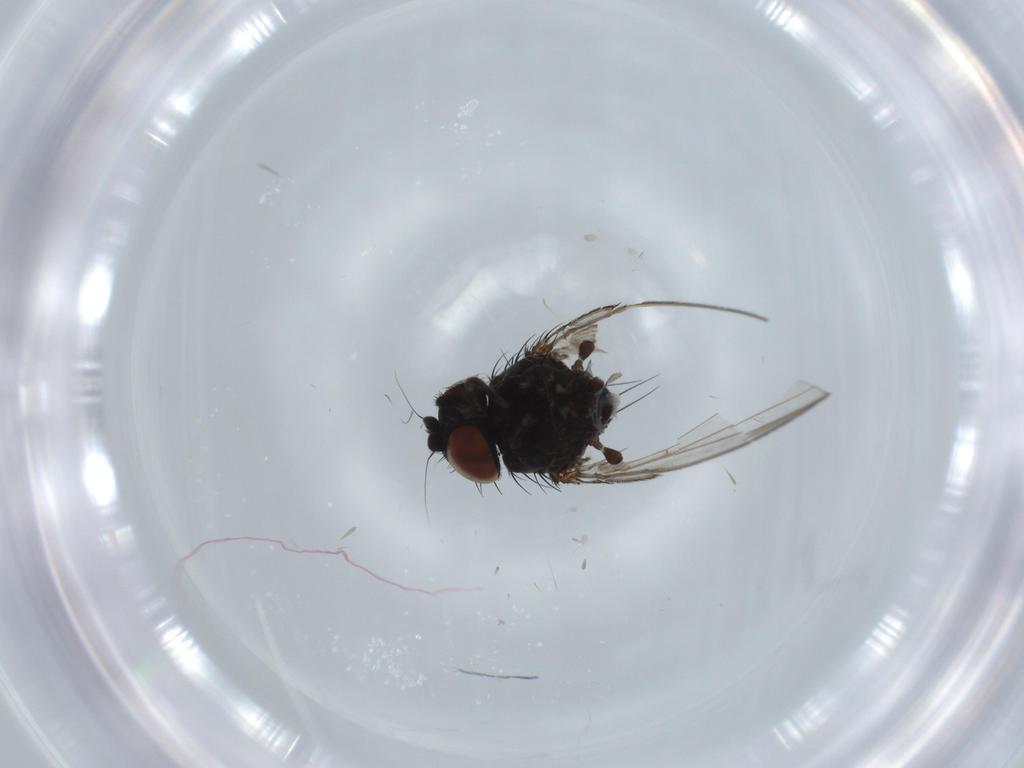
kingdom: Animalia
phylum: Arthropoda
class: Insecta
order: Diptera
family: Milichiidae
